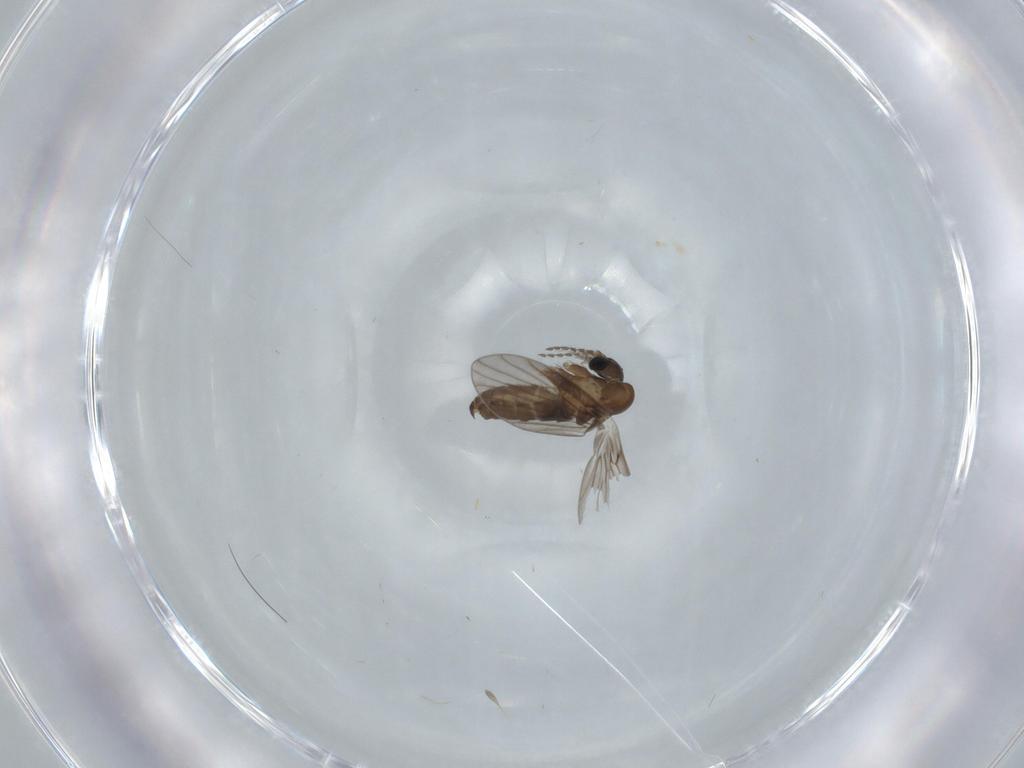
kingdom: Animalia
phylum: Arthropoda
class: Insecta
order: Diptera
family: Psychodidae
